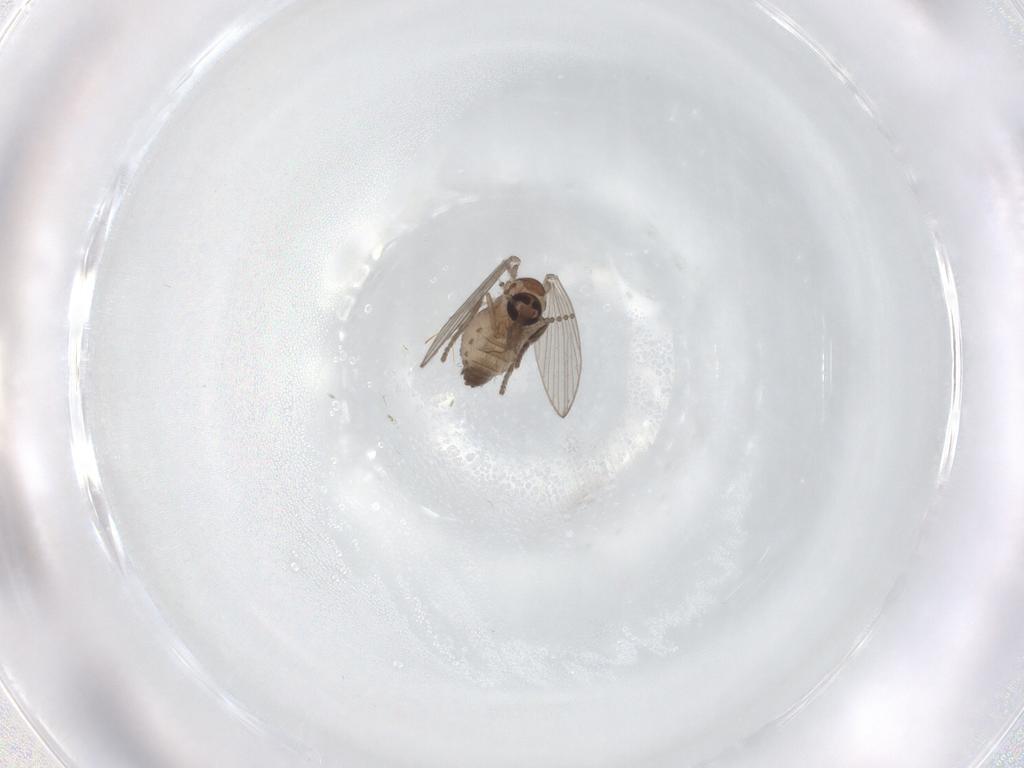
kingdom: Animalia
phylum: Arthropoda
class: Insecta
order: Diptera
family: Psychodidae
